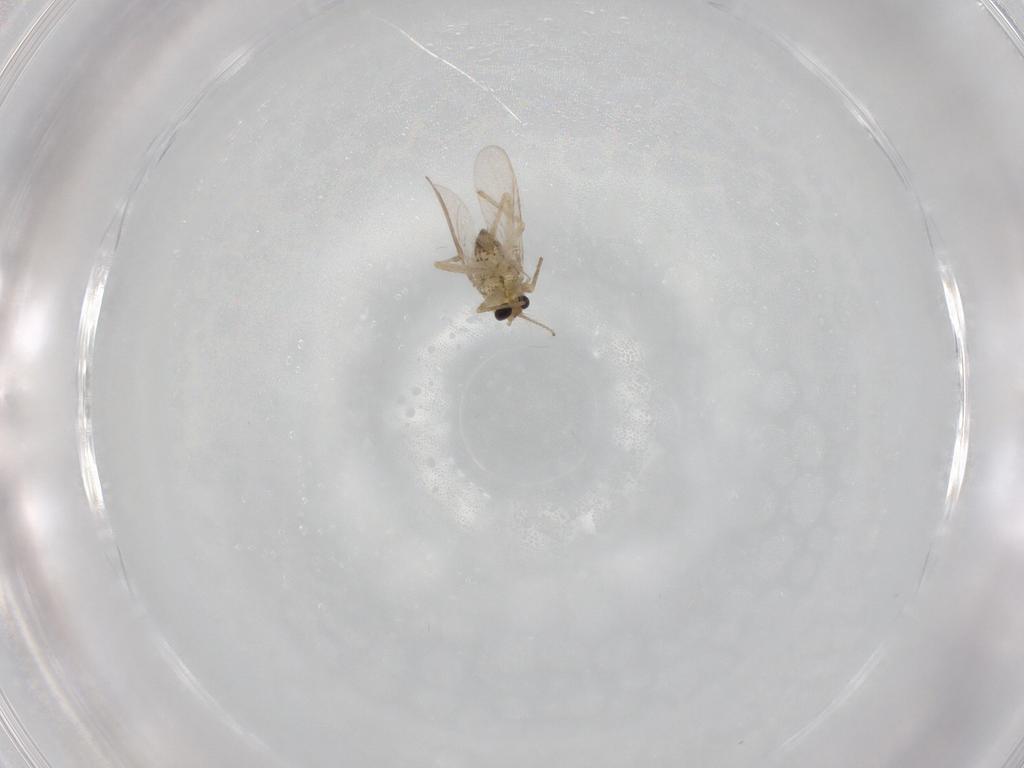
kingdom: Animalia
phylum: Arthropoda
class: Insecta
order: Diptera
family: Chironomidae
